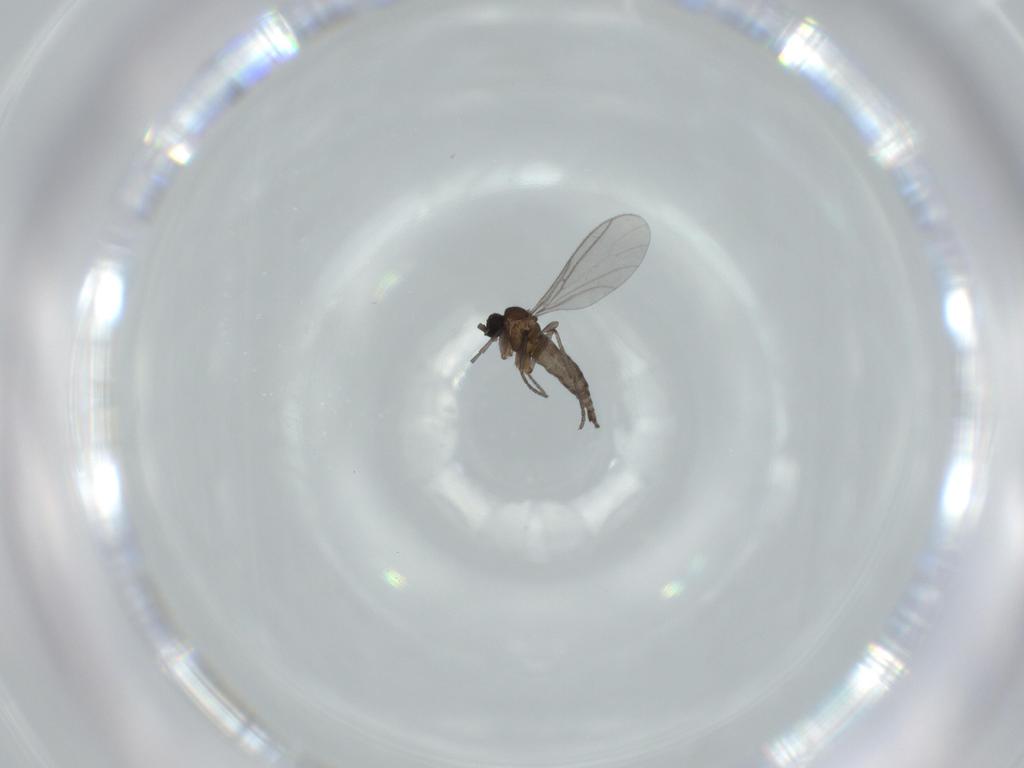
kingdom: Animalia
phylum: Arthropoda
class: Insecta
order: Diptera
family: Sciaridae
